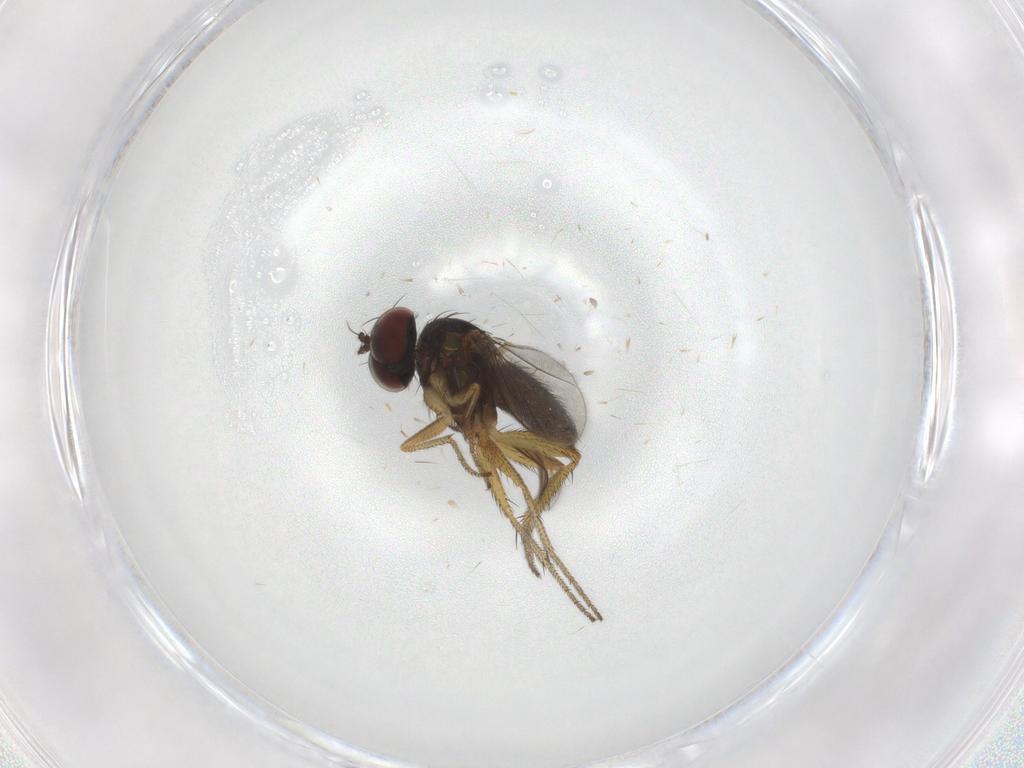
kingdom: Animalia
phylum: Arthropoda
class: Insecta
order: Diptera
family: Dolichopodidae
